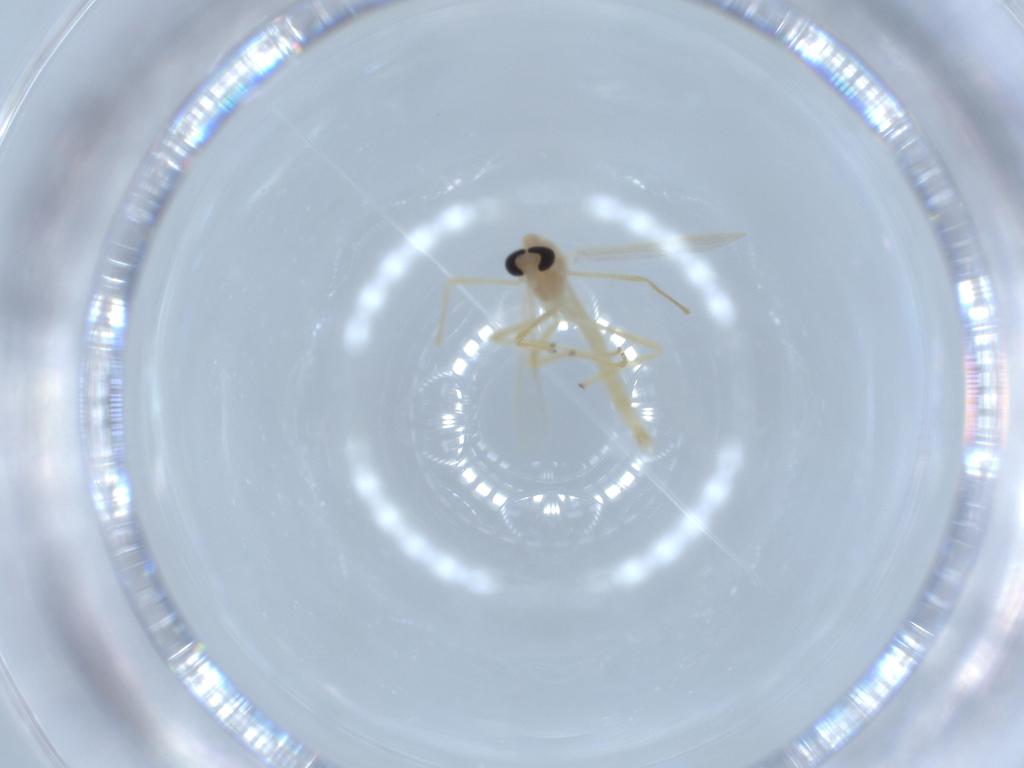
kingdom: Animalia
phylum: Arthropoda
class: Insecta
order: Diptera
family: Chironomidae
